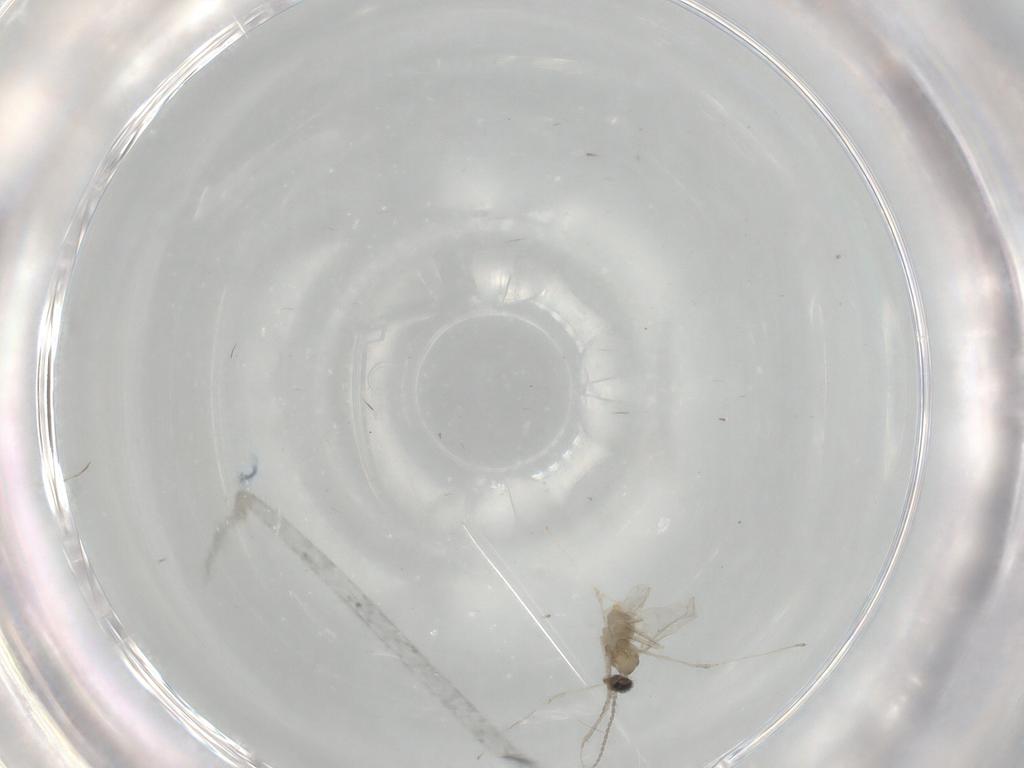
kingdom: Animalia
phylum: Arthropoda
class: Insecta
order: Diptera
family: Cecidomyiidae
